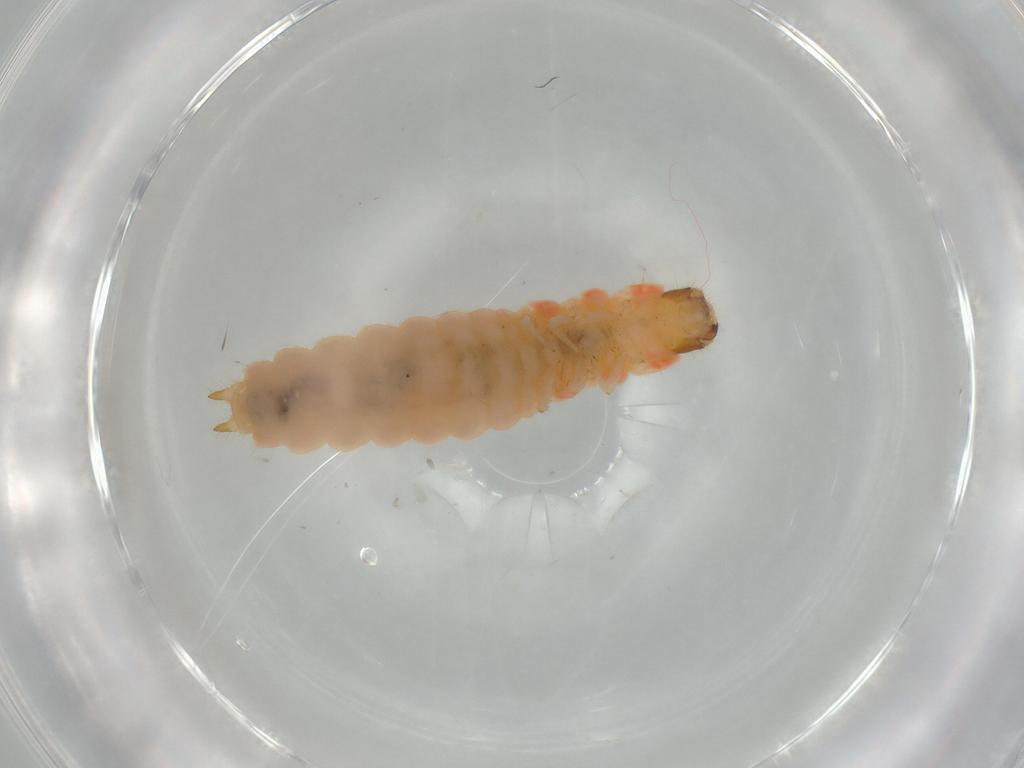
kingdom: Animalia
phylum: Arthropoda
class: Insecta
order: Coleoptera
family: Melyridae
